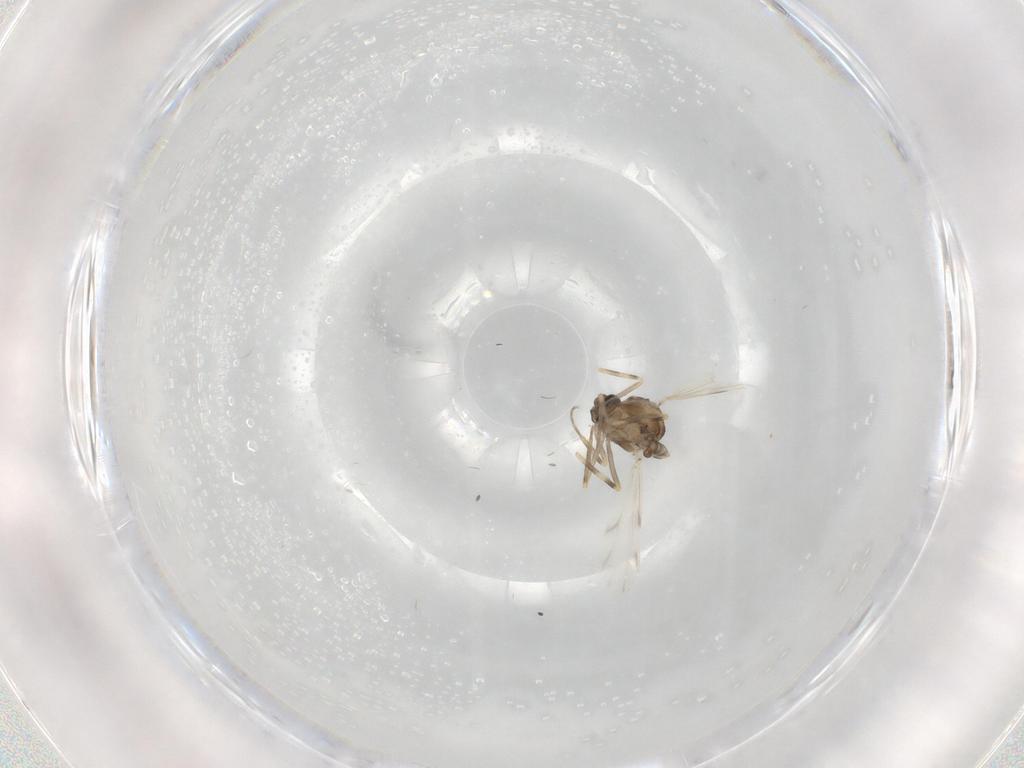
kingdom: Animalia
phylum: Arthropoda
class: Insecta
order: Diptera
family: Ceratopogonidae
